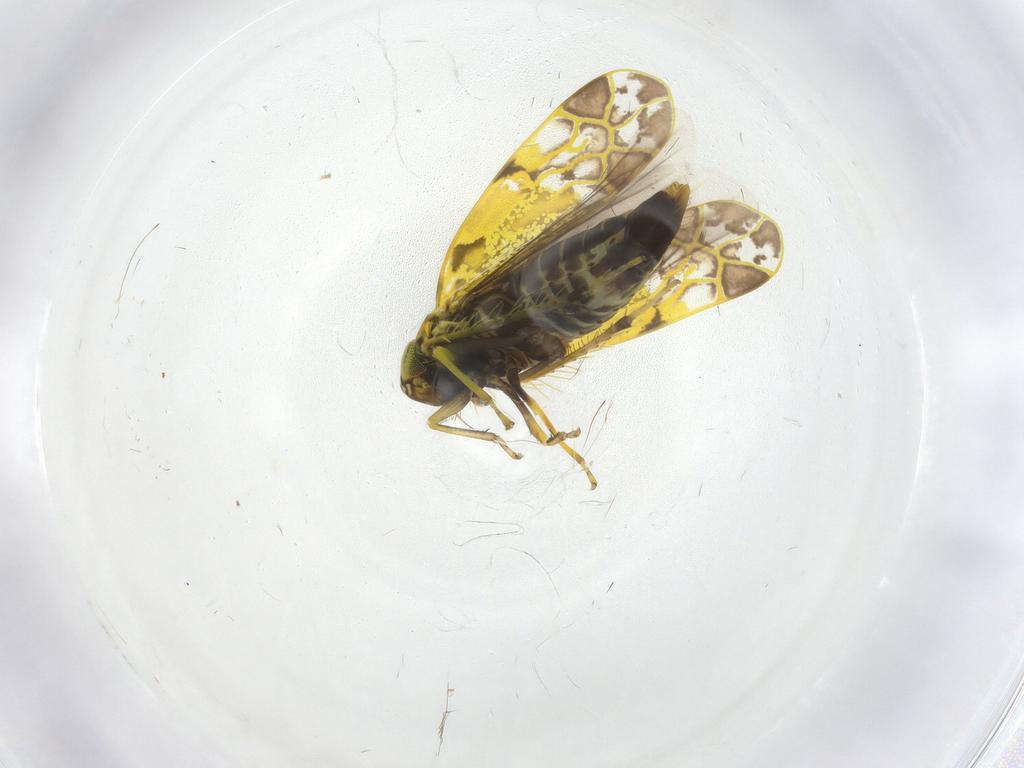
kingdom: Animalia
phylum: Arthropoda
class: Insecta
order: Hemiptera
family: Cicadellidae
